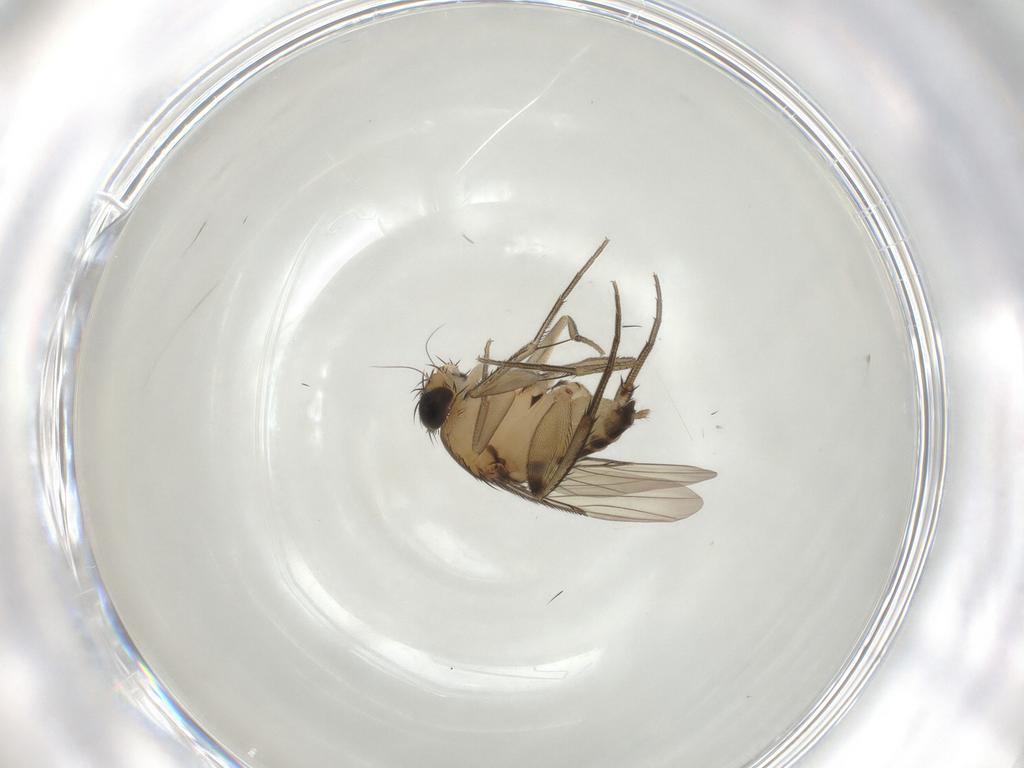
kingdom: Animalia
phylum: Arthropoda
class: Insecta
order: Diptera
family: Phoridae
